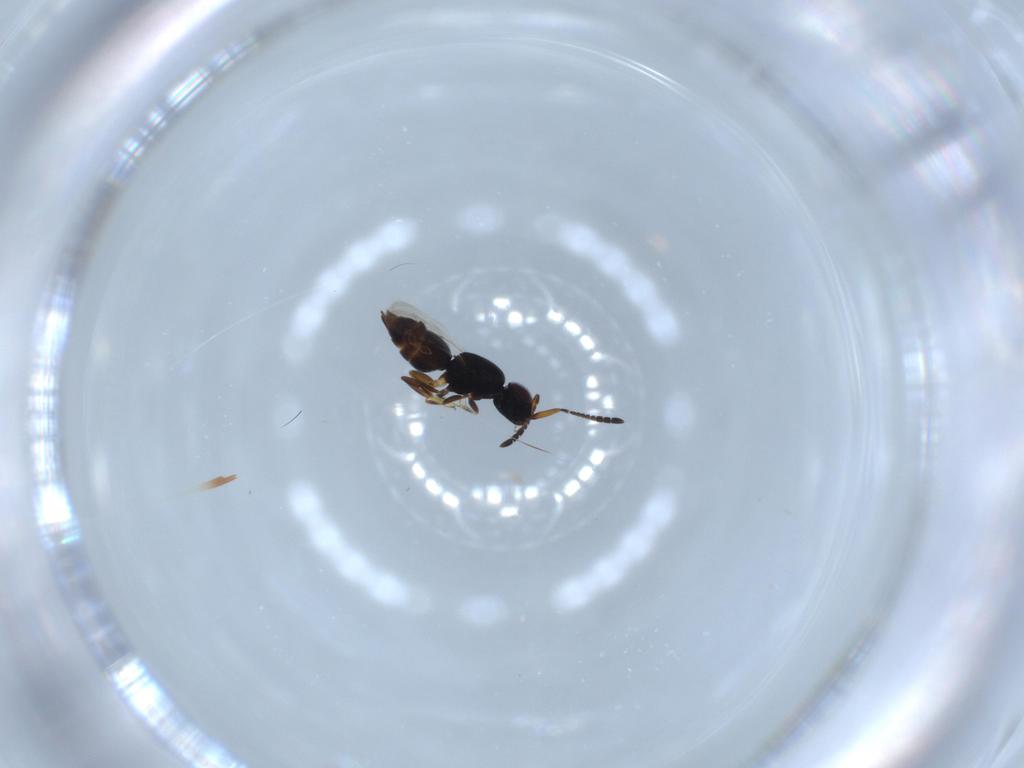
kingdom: Animalia
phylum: Arthropoda
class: Insecta
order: Hymenoptera
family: Ceraphronidae
